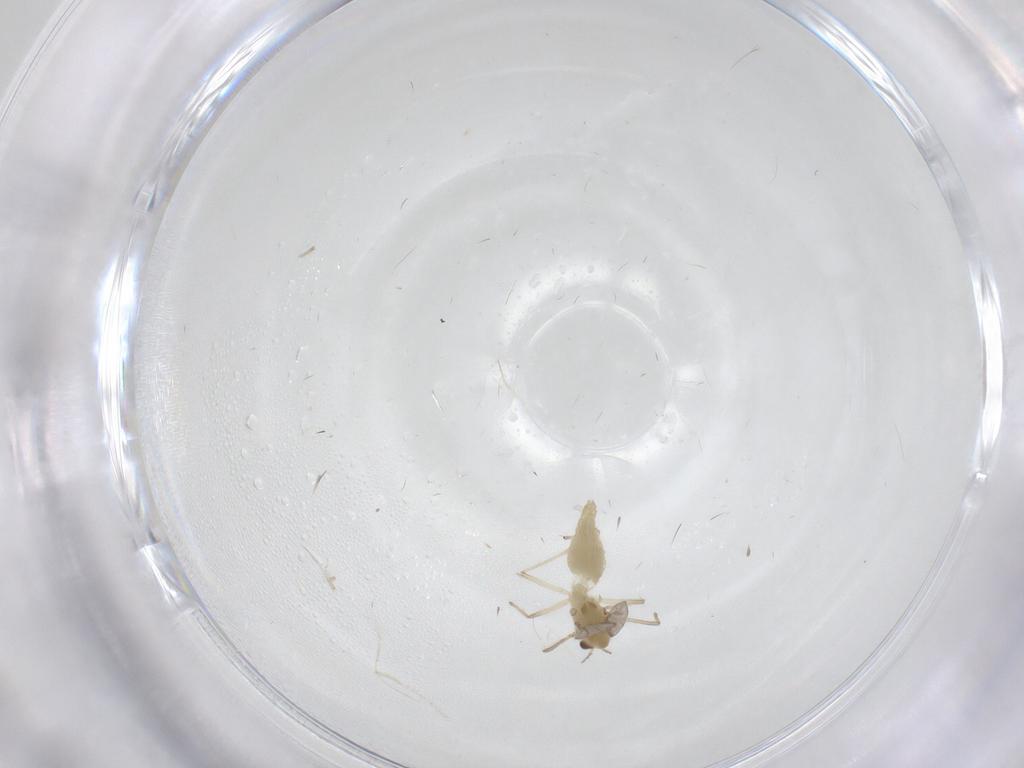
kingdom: Animalia
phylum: Arthropoda
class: Insecta
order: Diptera
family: Chironomidae
